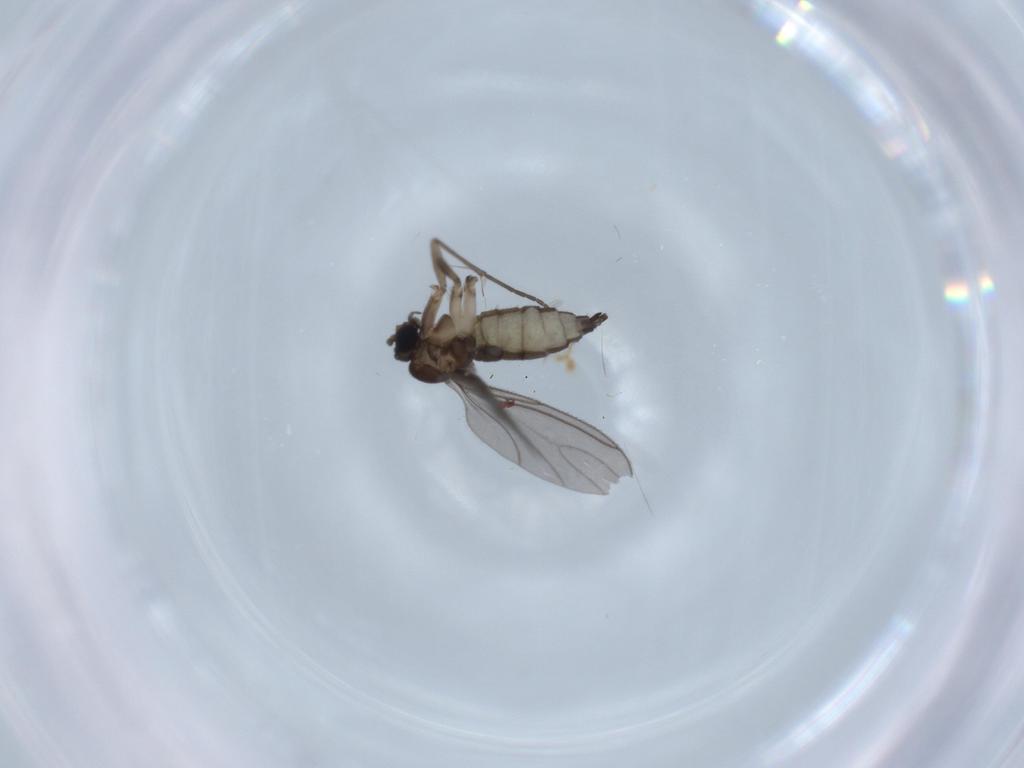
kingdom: Animalia
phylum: Arthropoda
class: Insecta
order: Diptera
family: Sciaridae
